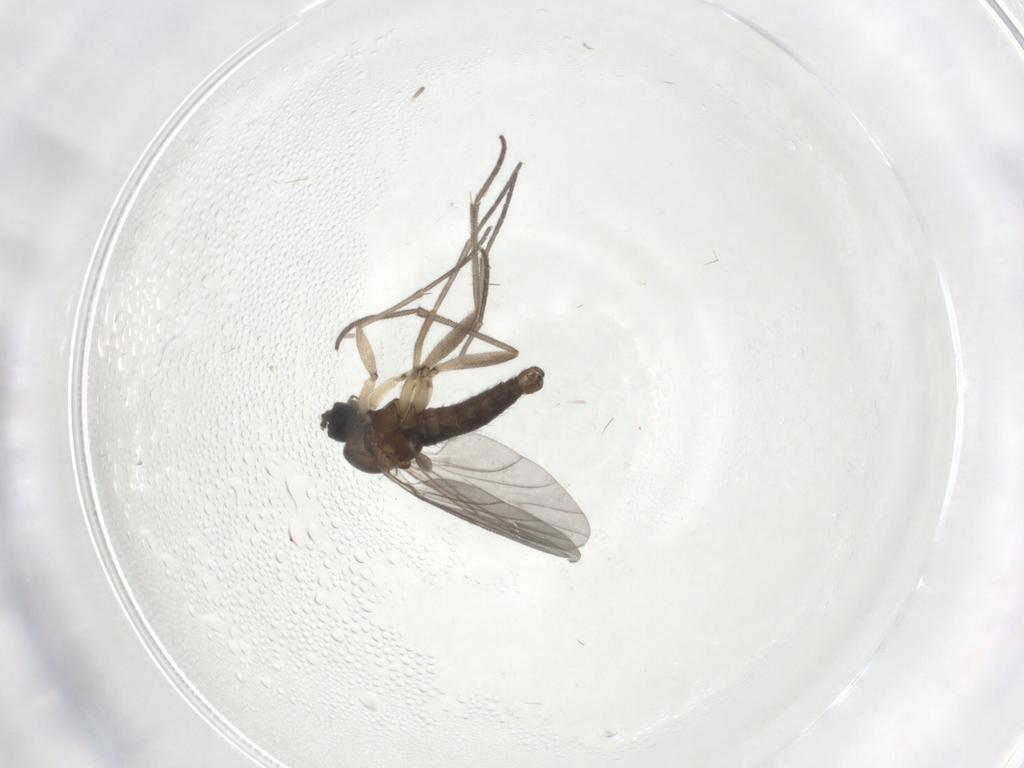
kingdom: Animalia
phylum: Arthropoda
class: Insecta
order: Diptera
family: Sciaridae
